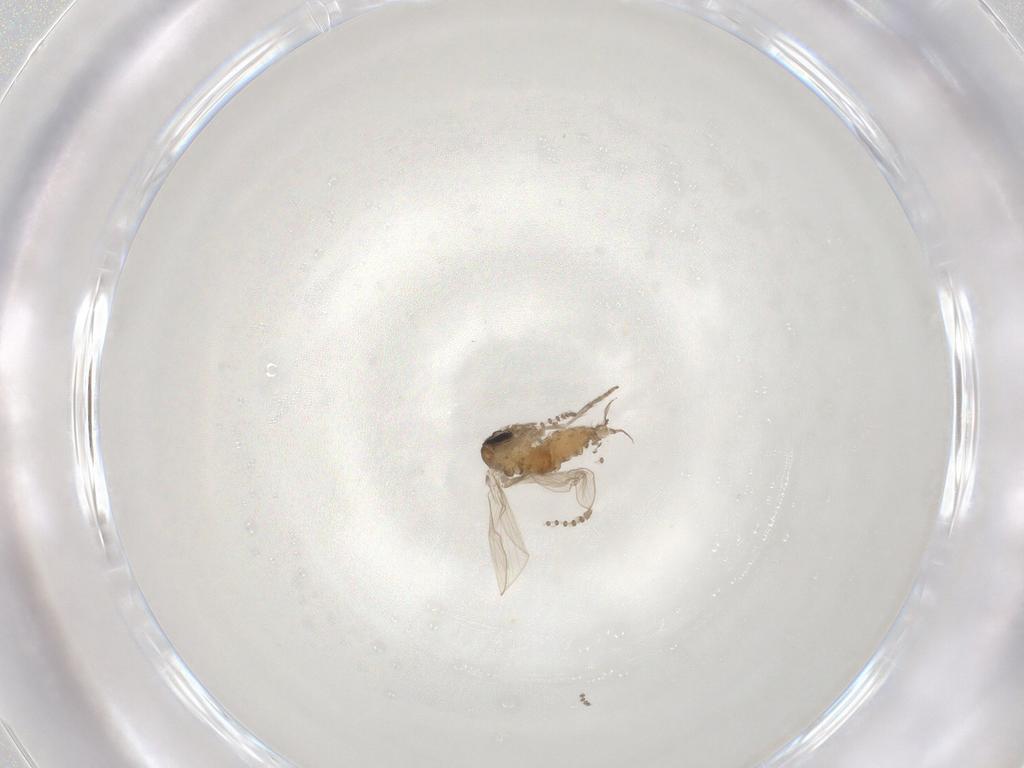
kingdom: Animalia
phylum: Arthropoda
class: Insecta
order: Diptera
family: Psychodidae
